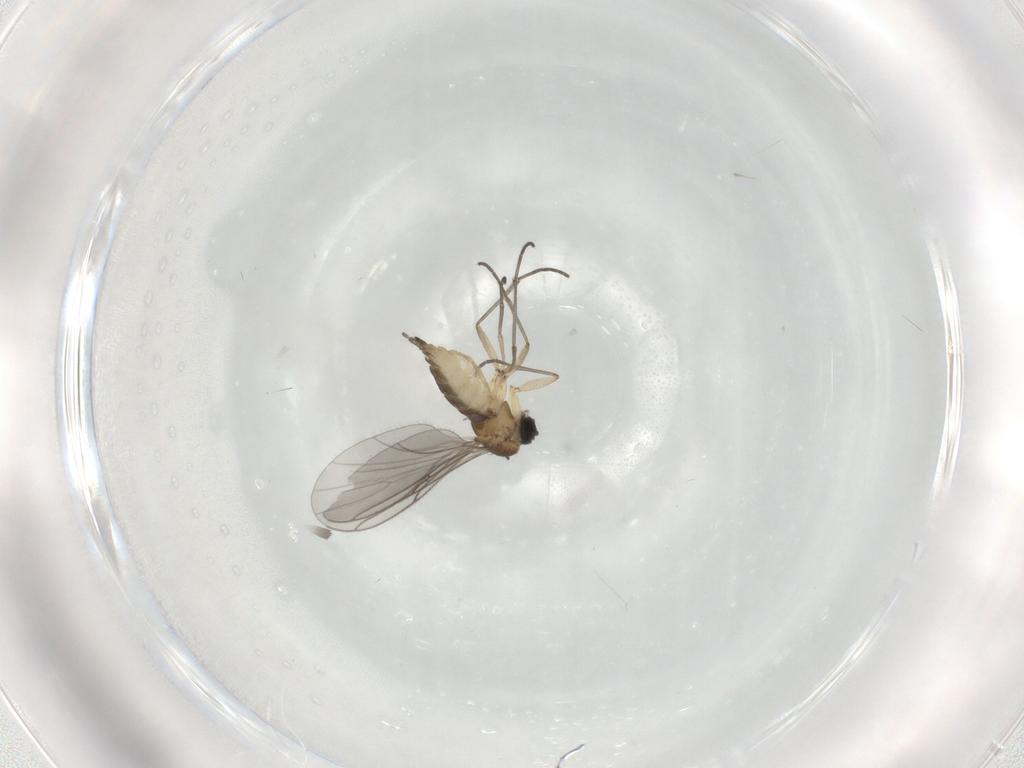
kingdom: Animalia
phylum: Arthropoda
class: Insecta
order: Diptera
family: Sciaridae
